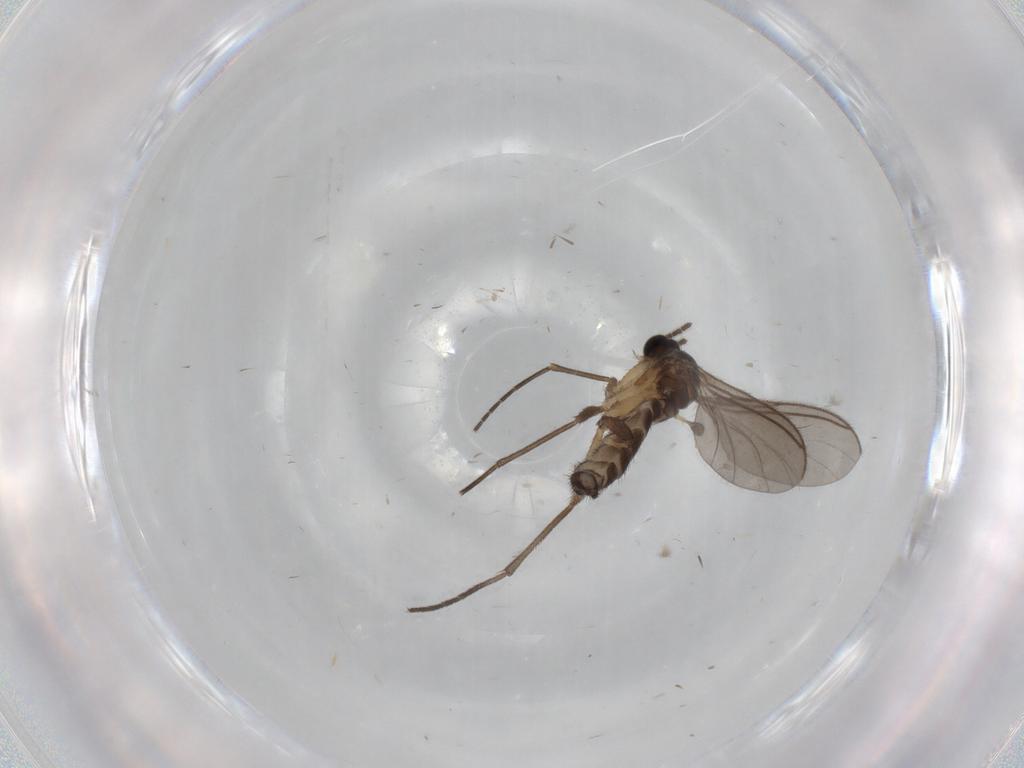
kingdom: Animalia
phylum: Arthropoda
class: Insecta
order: Diptera
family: Sciaridae
